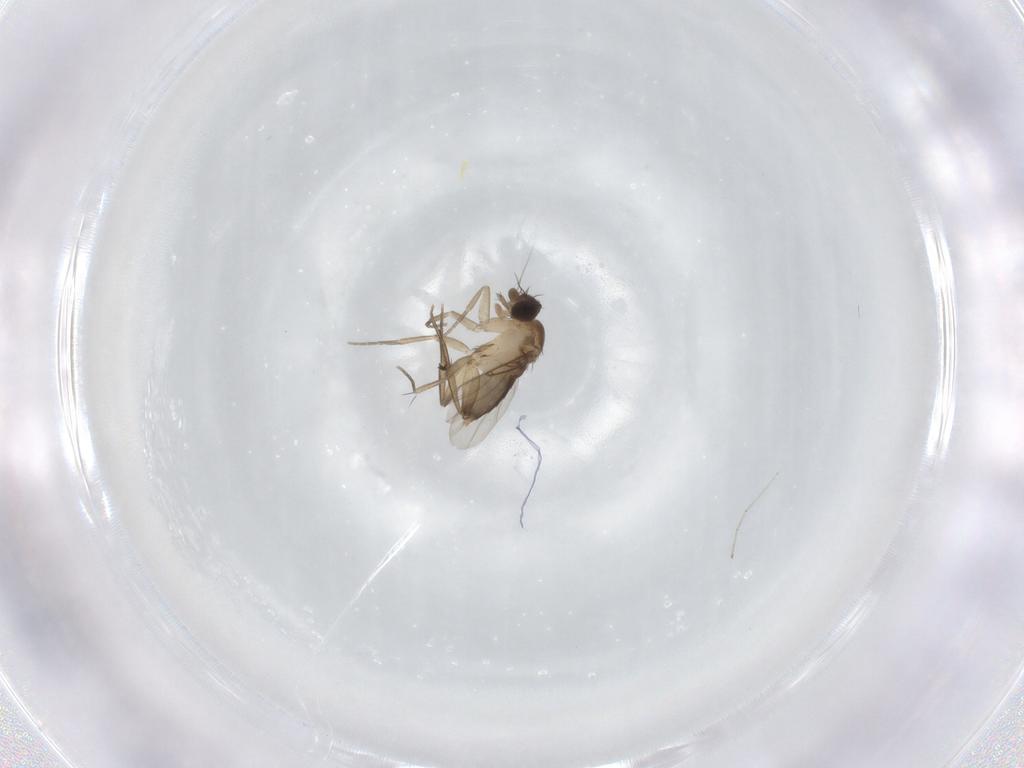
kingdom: Animalia
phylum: Arthropoda
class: Insecta
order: Diptera
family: Phoridae
